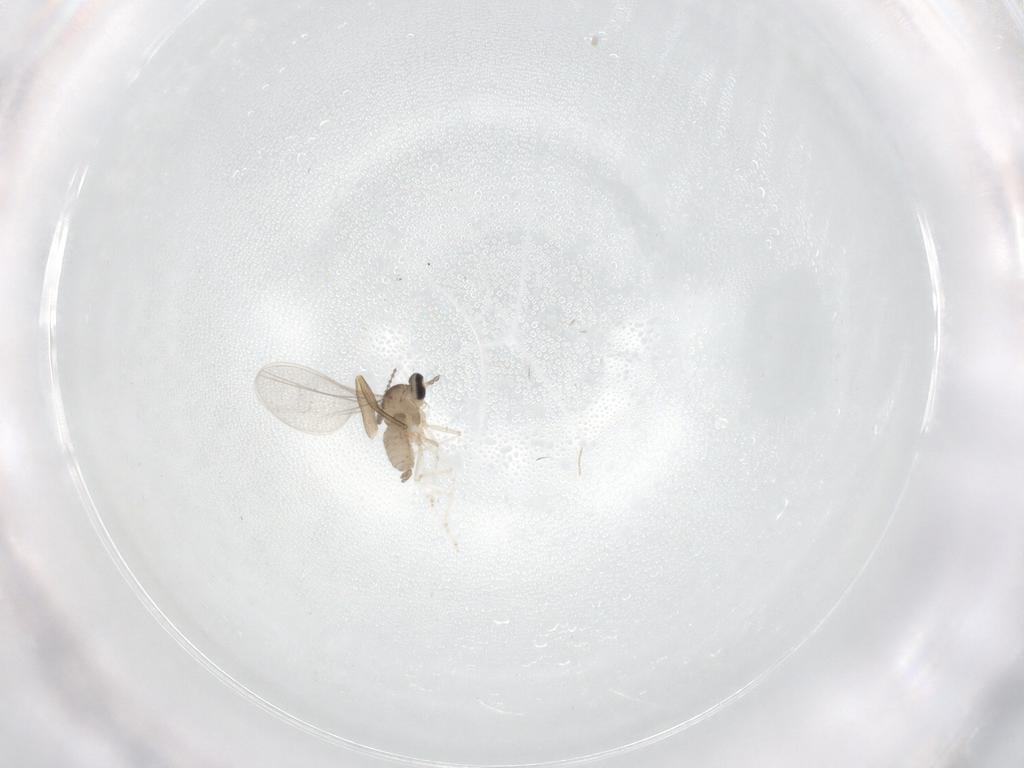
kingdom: Animalia
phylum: Arthropoda
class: Insecta
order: Diptera
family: Cecidomyiidae
